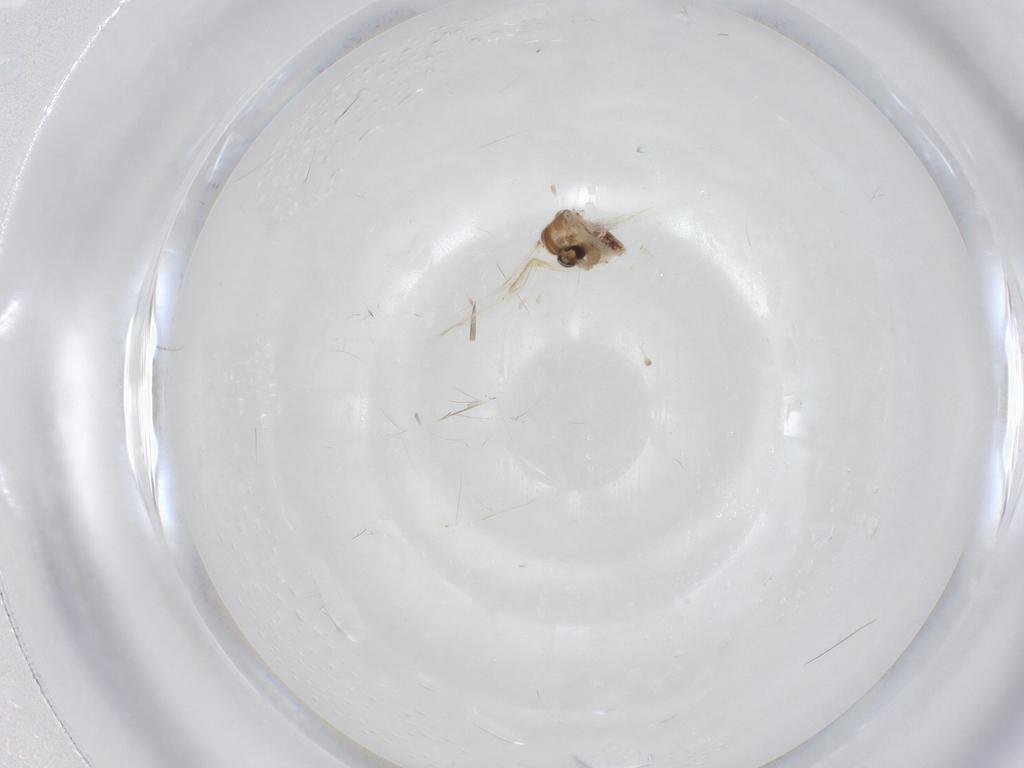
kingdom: Animalia
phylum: Arthropoda
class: Insecta
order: Diptera
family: Chironomidae
